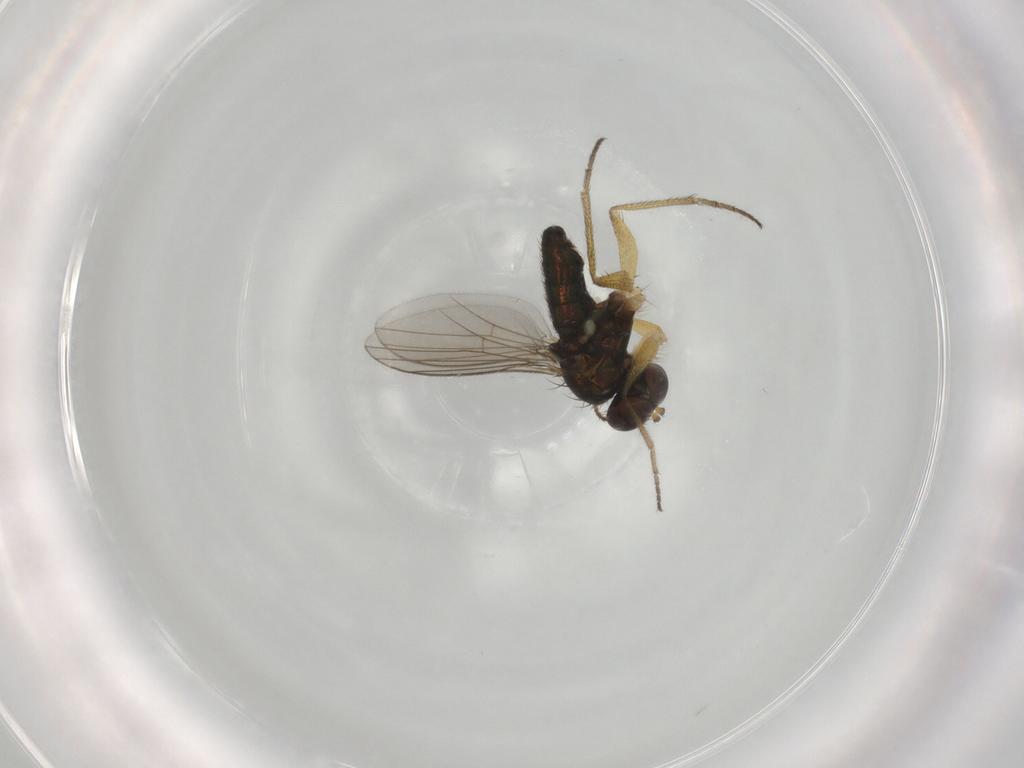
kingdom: Animalia
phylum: Arthropoda
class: Insecta
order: Diptera
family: Dolichopodidae
